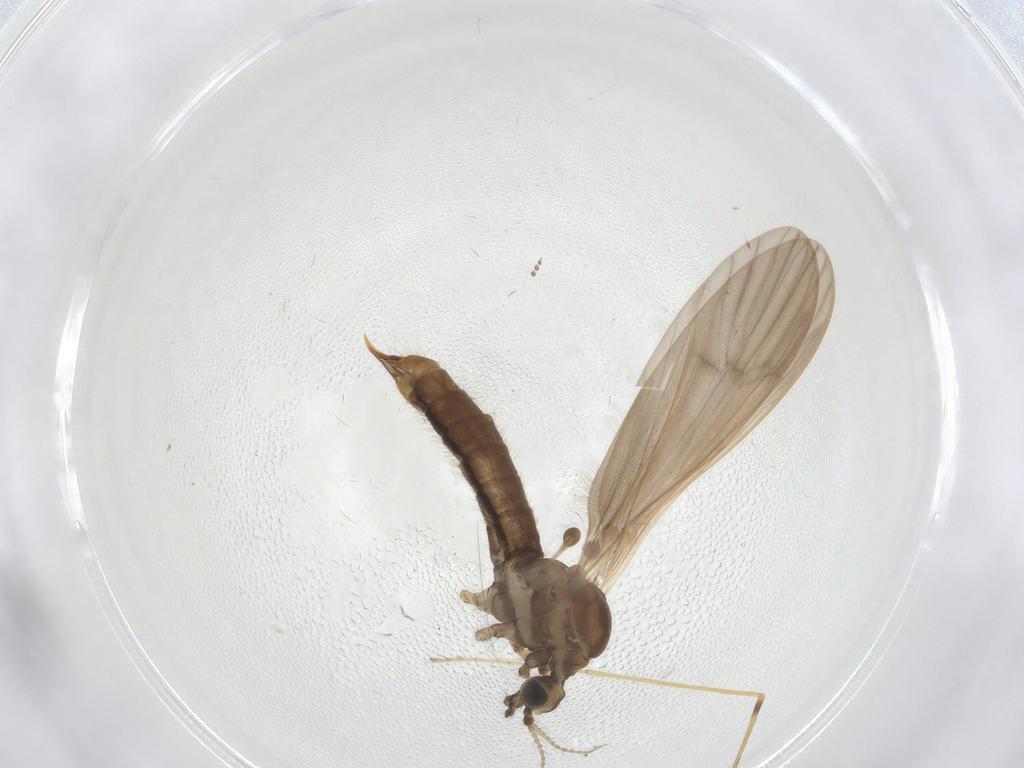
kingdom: Animalia
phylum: Arthropoda
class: Insecta
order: Diptera
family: Limoniidae
